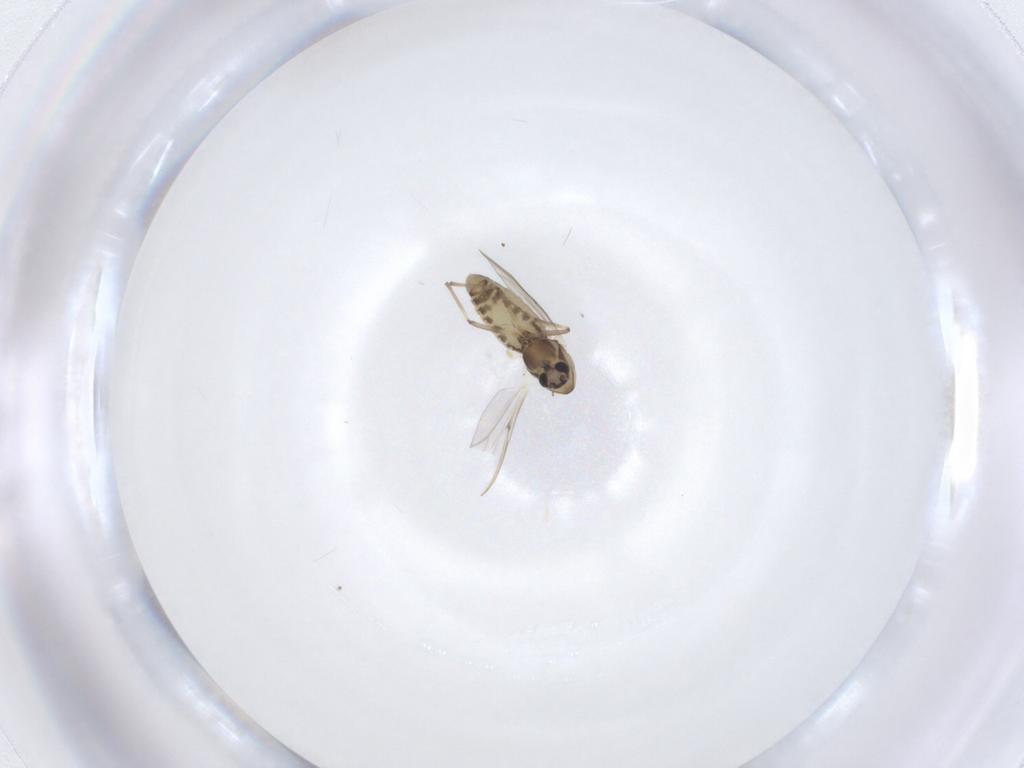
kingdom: Animalia
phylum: Arthropoda
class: Insecta
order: Diptera
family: Chironomidae
